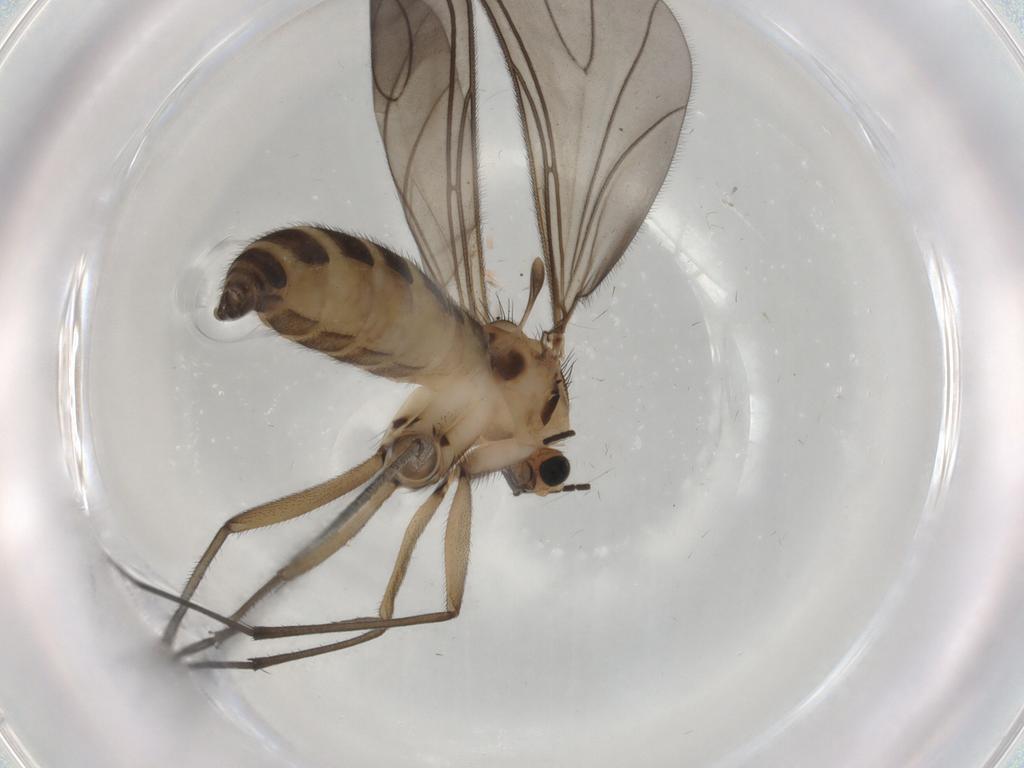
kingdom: Animalia
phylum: Arthropoda
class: Insecta
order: Diptera
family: Sciaridae
